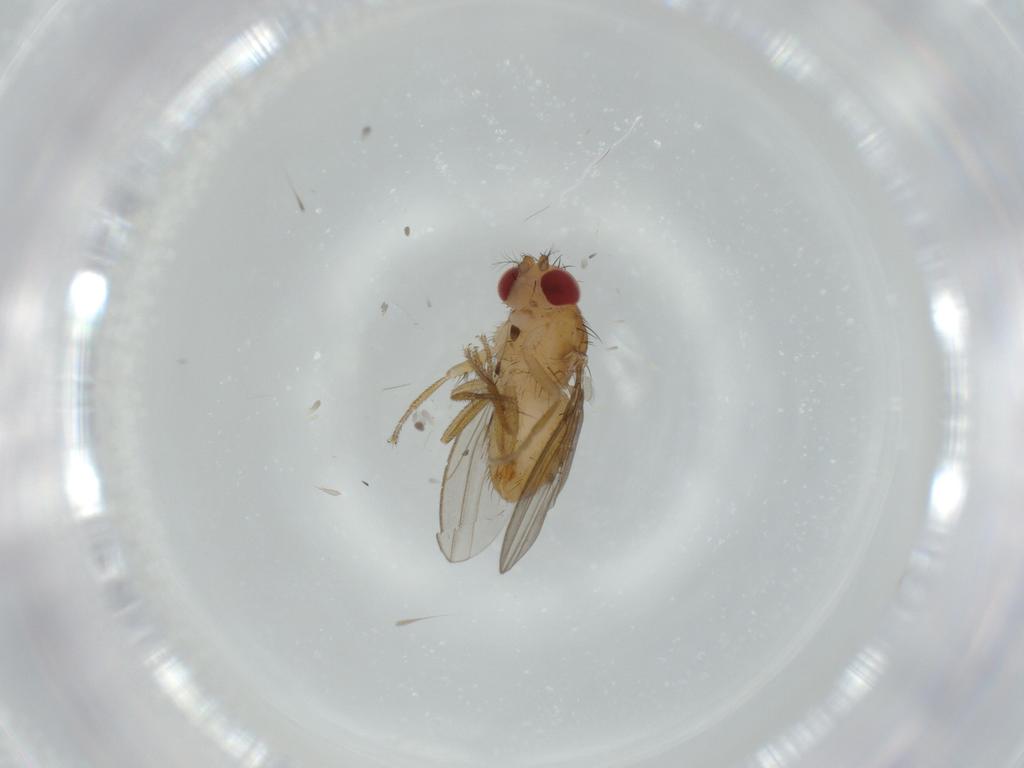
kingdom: Animalia
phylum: Arthropoda
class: Insecta
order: Diptera
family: Drosophilidae
